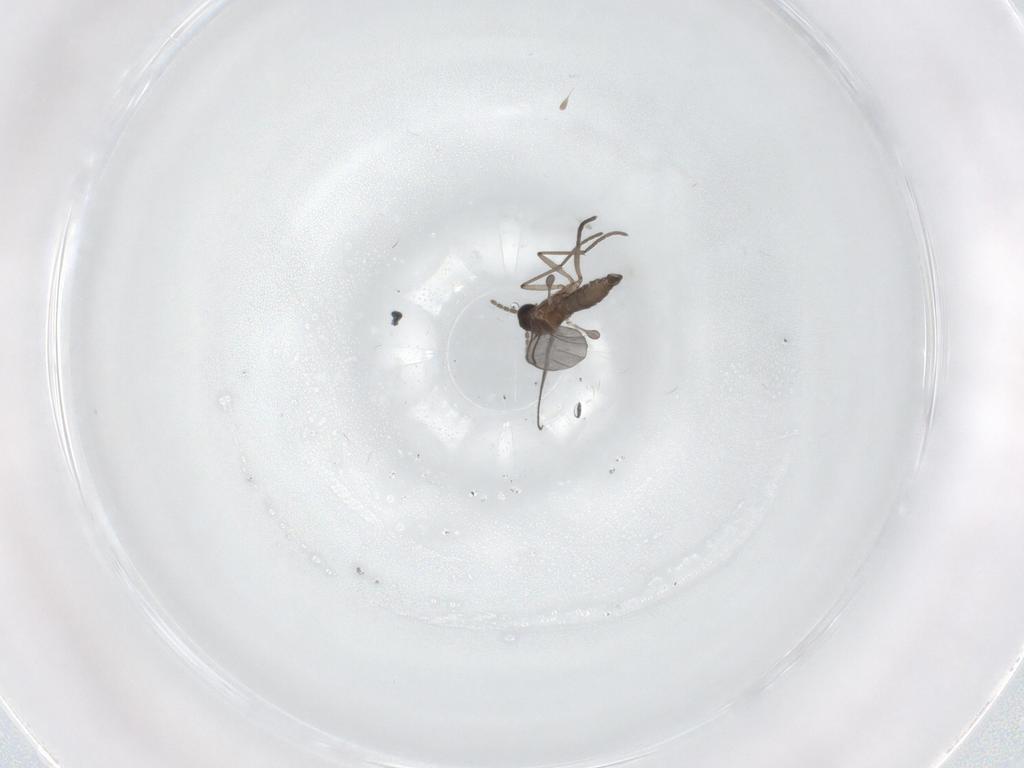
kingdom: Animalia
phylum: Arthropoda
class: Insecta
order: Diptera
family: Sciaridae
